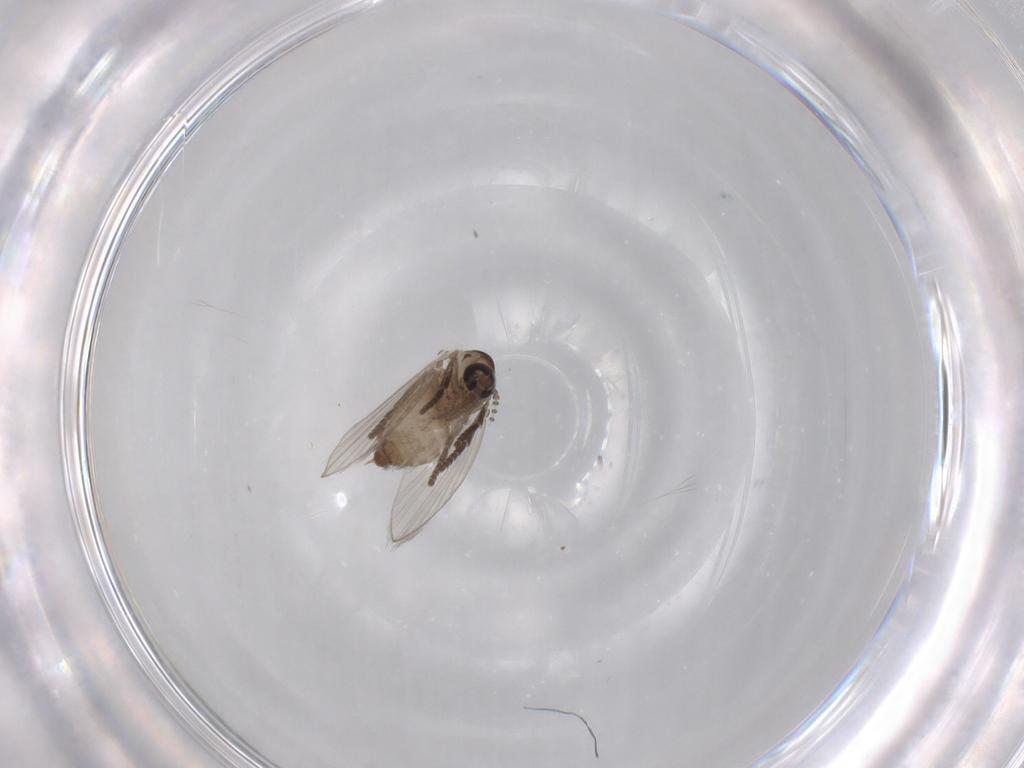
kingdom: Animalia
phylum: Arthropoda
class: Insecta
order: Diptera
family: Psychodidae
